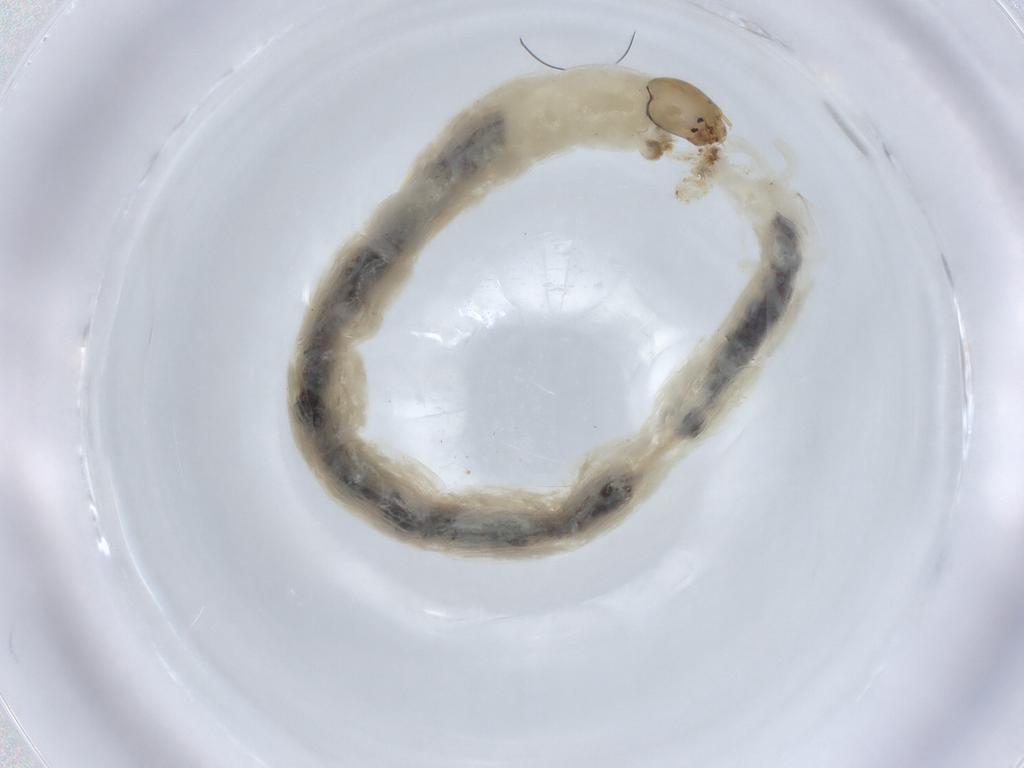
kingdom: Animalia
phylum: Arthropoda
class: Insecta
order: Diptera
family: Chironomidae
